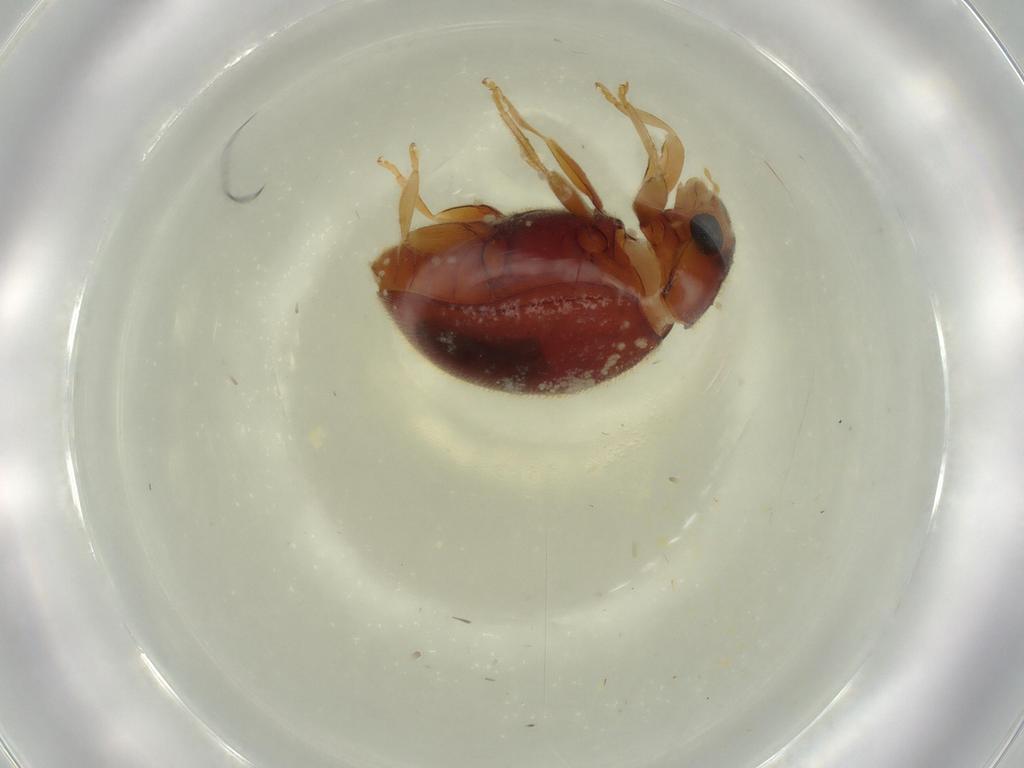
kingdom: Animalia
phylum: Arthropoda
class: Insecta
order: Coleoptera
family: Coccinellidae
